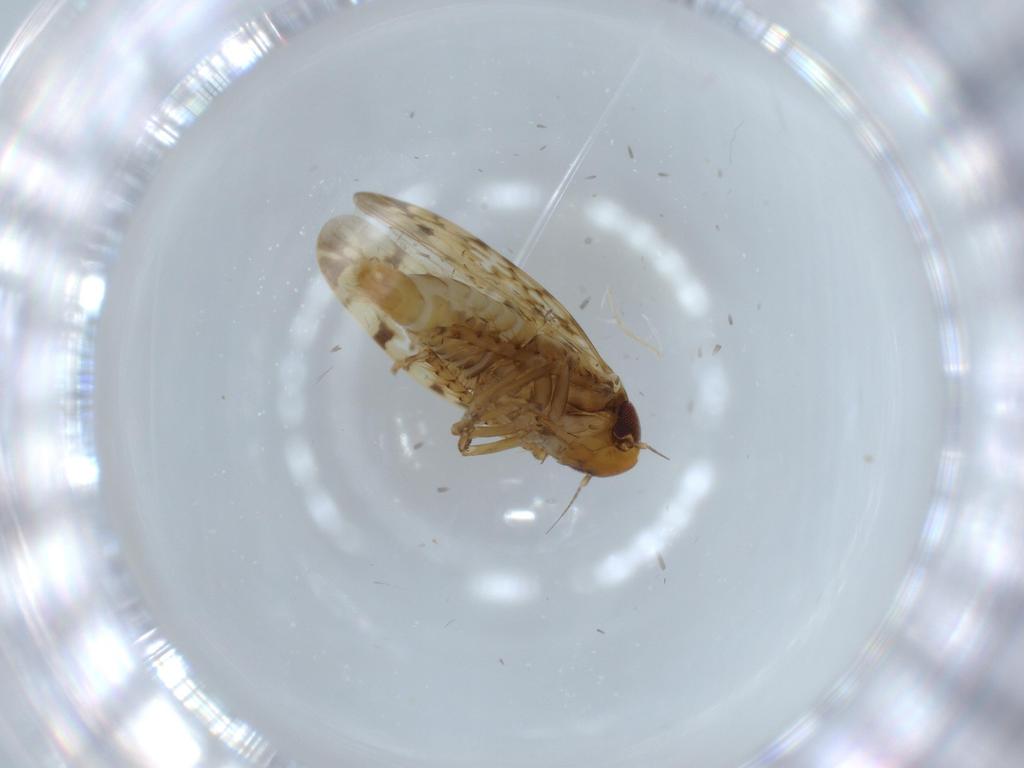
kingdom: Animalia
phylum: Arthropoda
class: Insecta
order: Hemiptera
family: Cicadellidae
